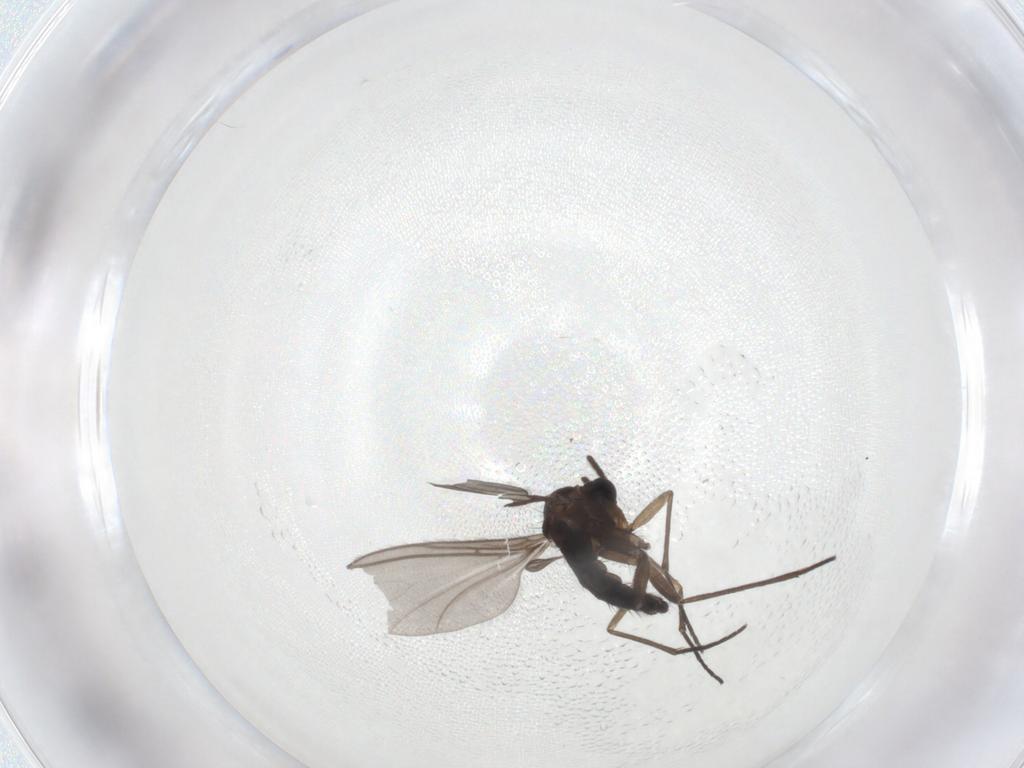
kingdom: Animalia
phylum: Arthropoda
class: Insecta
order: Diptera
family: Sciaridae
